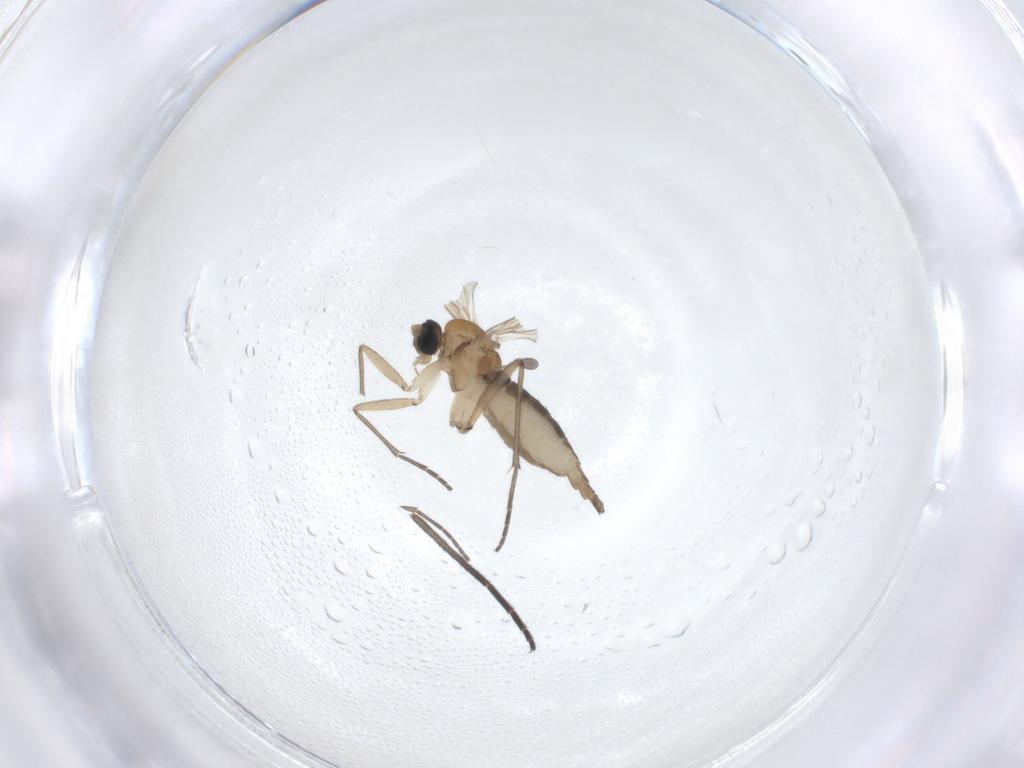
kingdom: Animalia
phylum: Arthropoda
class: Insecta
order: Diptera
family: Sciaridae
